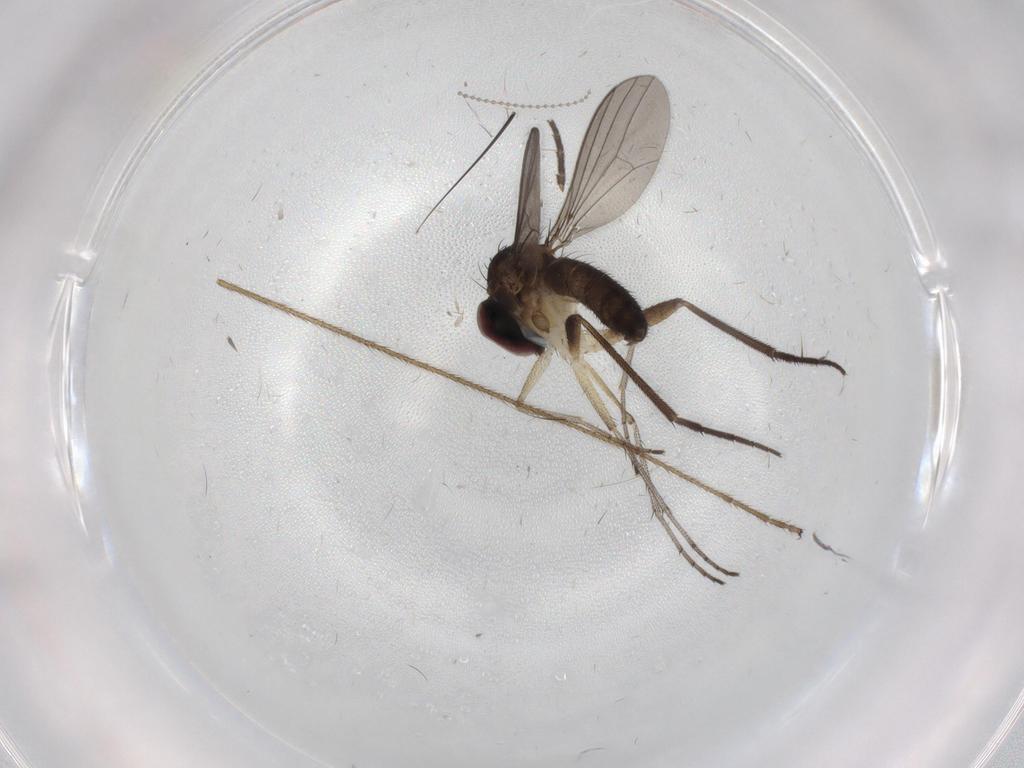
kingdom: Animalia
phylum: Arthropoda
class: Insecta
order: Diptera
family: Dolichopodidae
